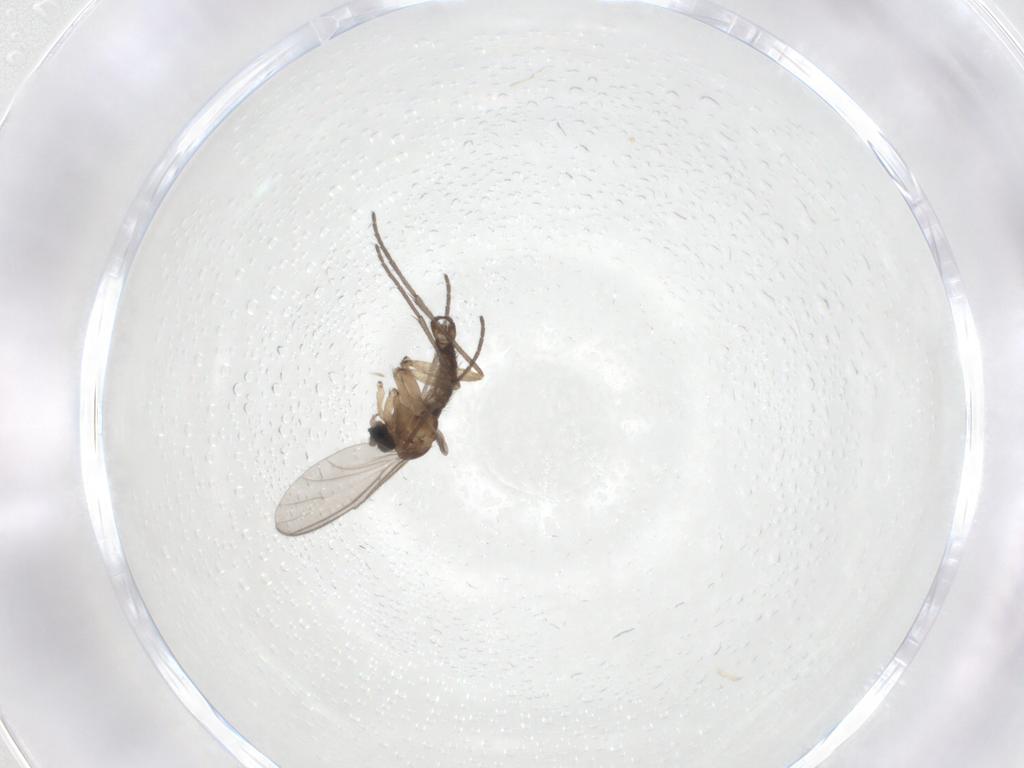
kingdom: Animalia
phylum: Arthropoda
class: Insecta
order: Diptera
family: Sciaridae
